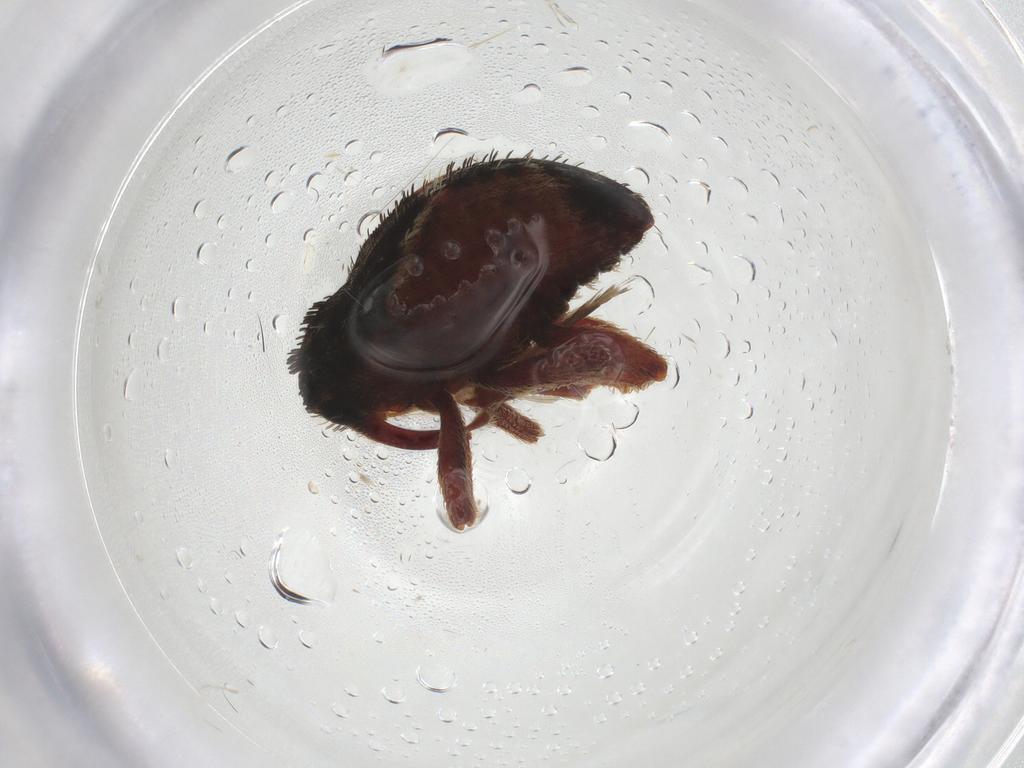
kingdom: Animalia
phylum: Arthropoda
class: Insecta
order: Coleoptera
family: Curculionidae
